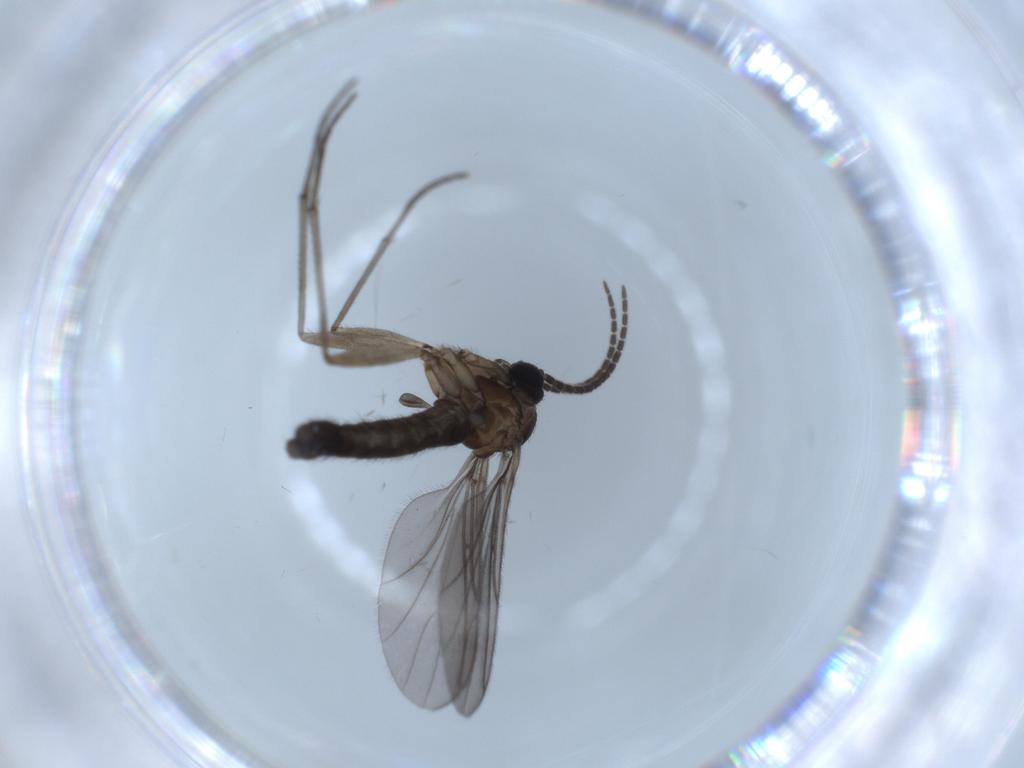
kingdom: Animalia
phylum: Arthropoda
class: Insecta
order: Diptera
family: Sciaridae
